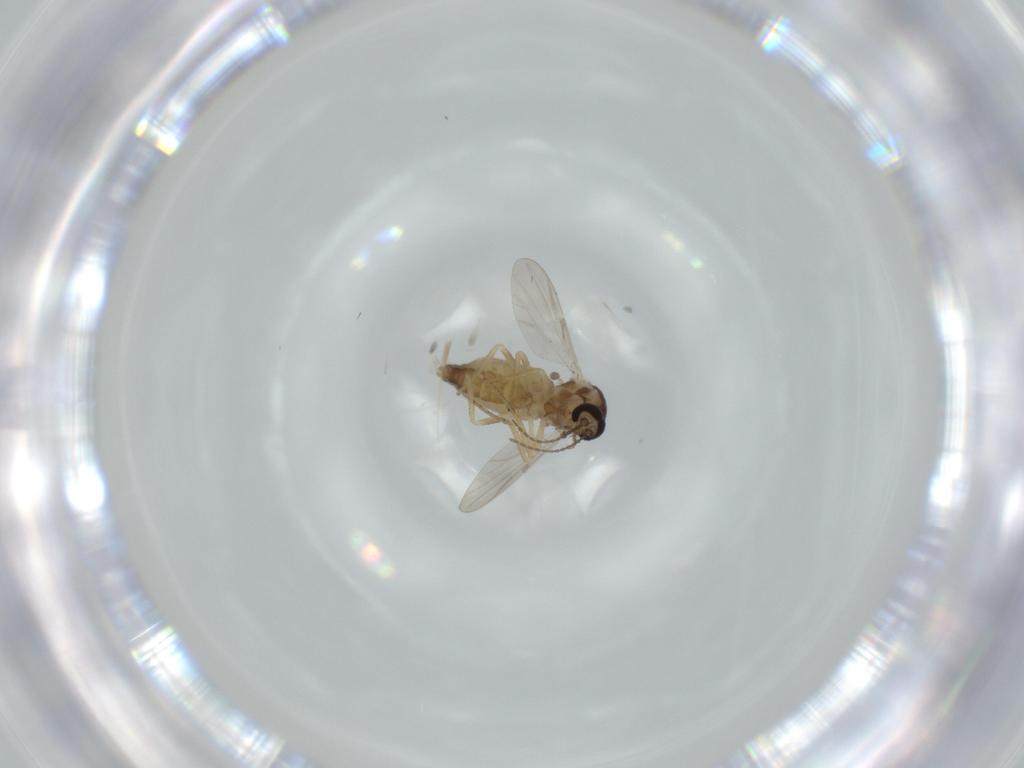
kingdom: Animalia
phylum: Arthropoda
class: Insecta
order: Diptera
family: Ceratopogonidae
